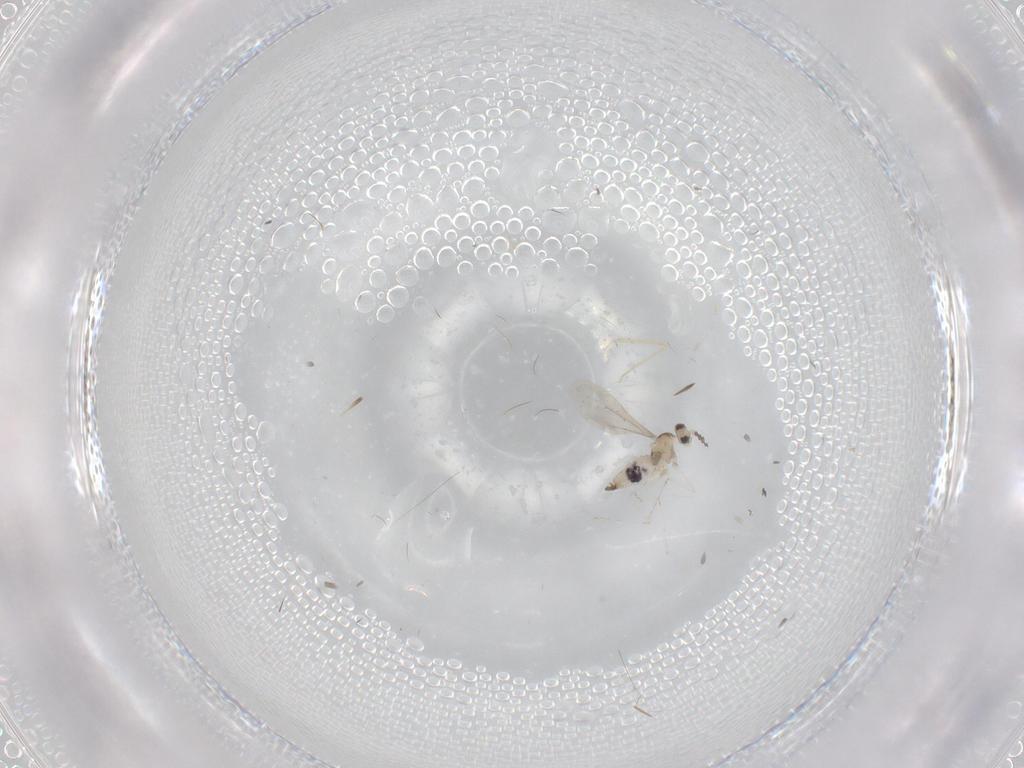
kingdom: Animalia
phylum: Arthropoda
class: Insecta
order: Diptera
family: Cecidomyiidae
